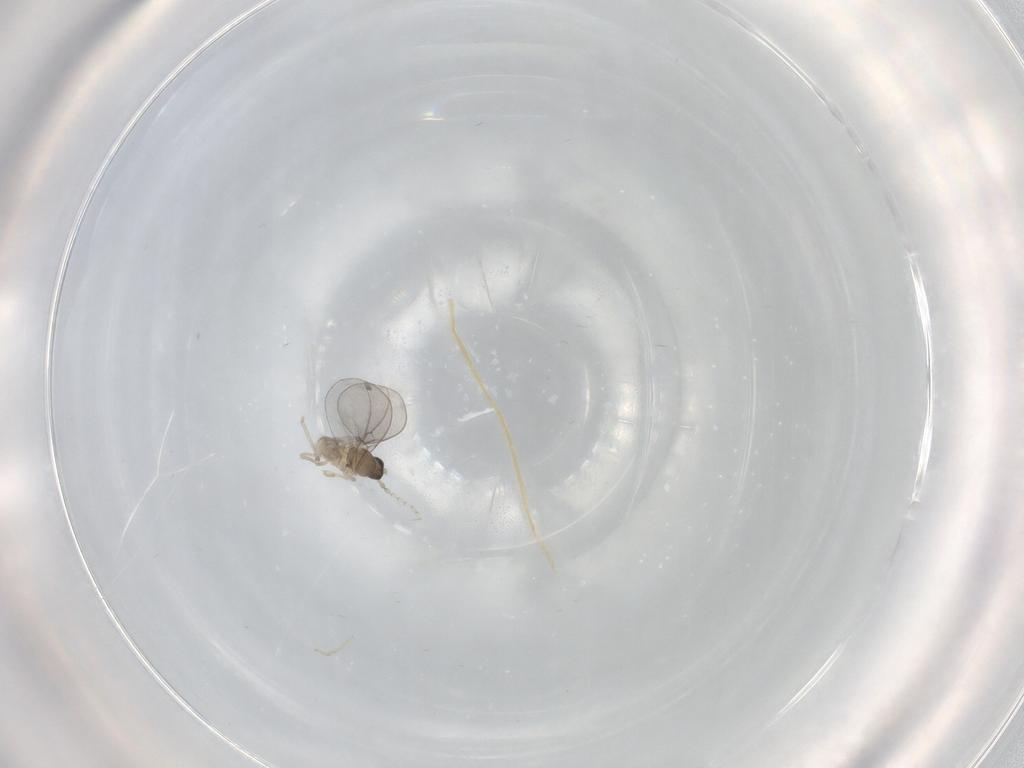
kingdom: Animalia
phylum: Arthropoda
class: Insecta
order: Diptera
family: Cecidomyiidae
